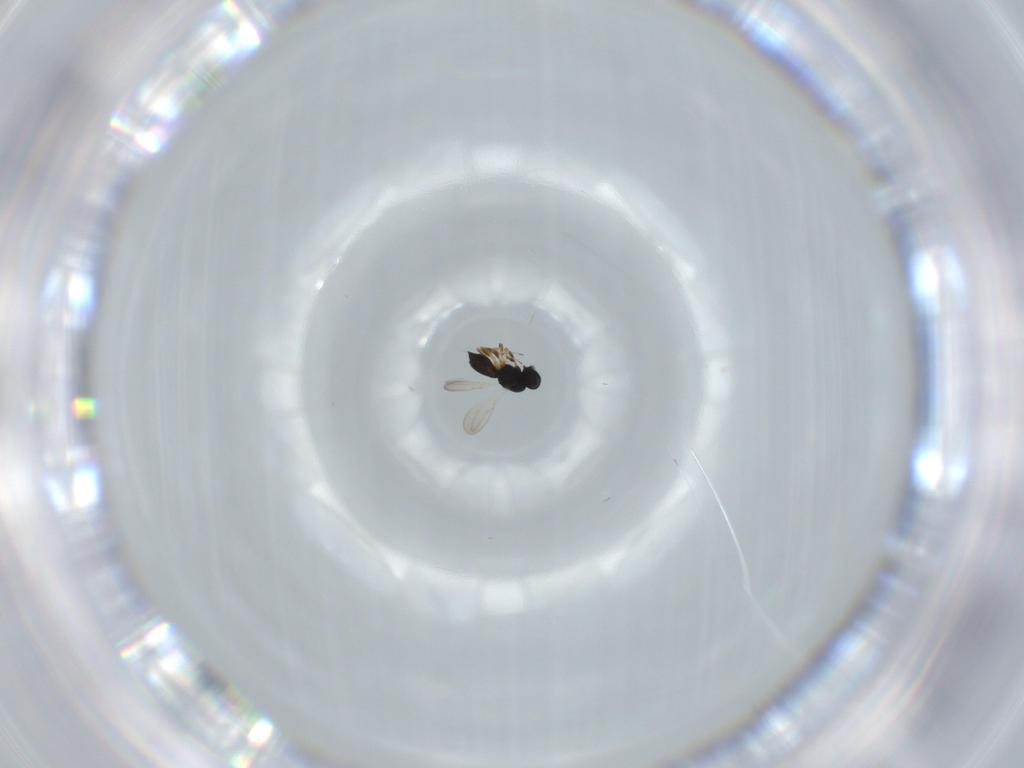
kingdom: Animalia
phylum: Arthropoda
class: Insecta
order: Hymenoptera
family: Scelionidae
